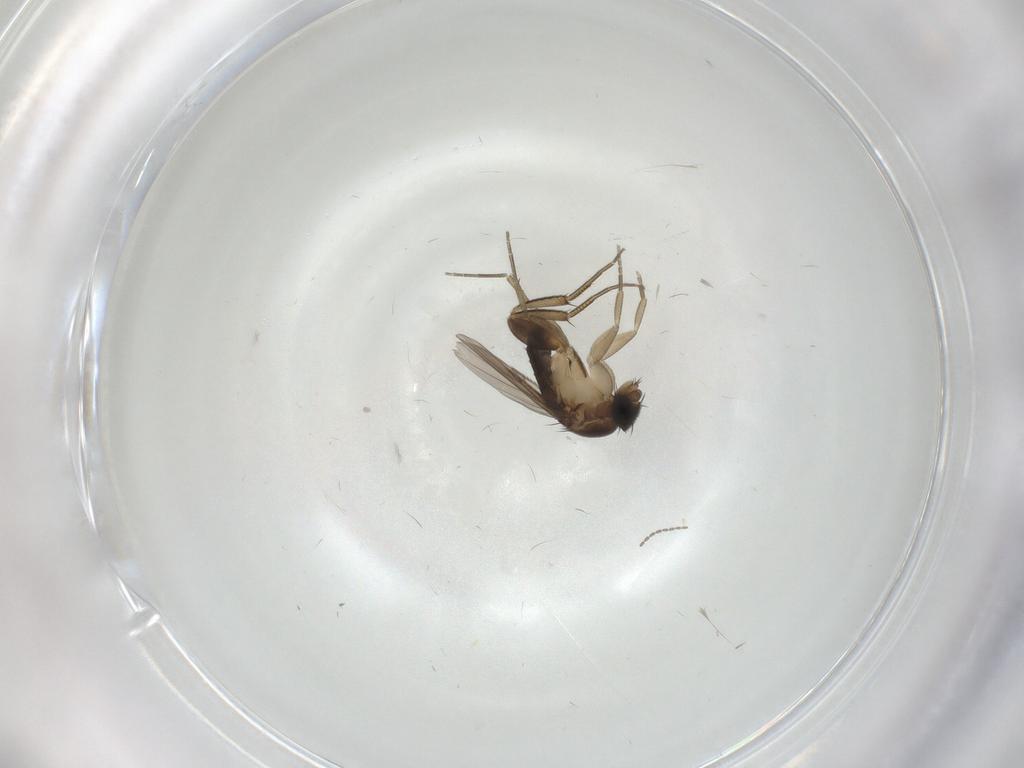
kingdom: Animalia
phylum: Arthropoda
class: Insecta
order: Diptera
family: Phoridae
